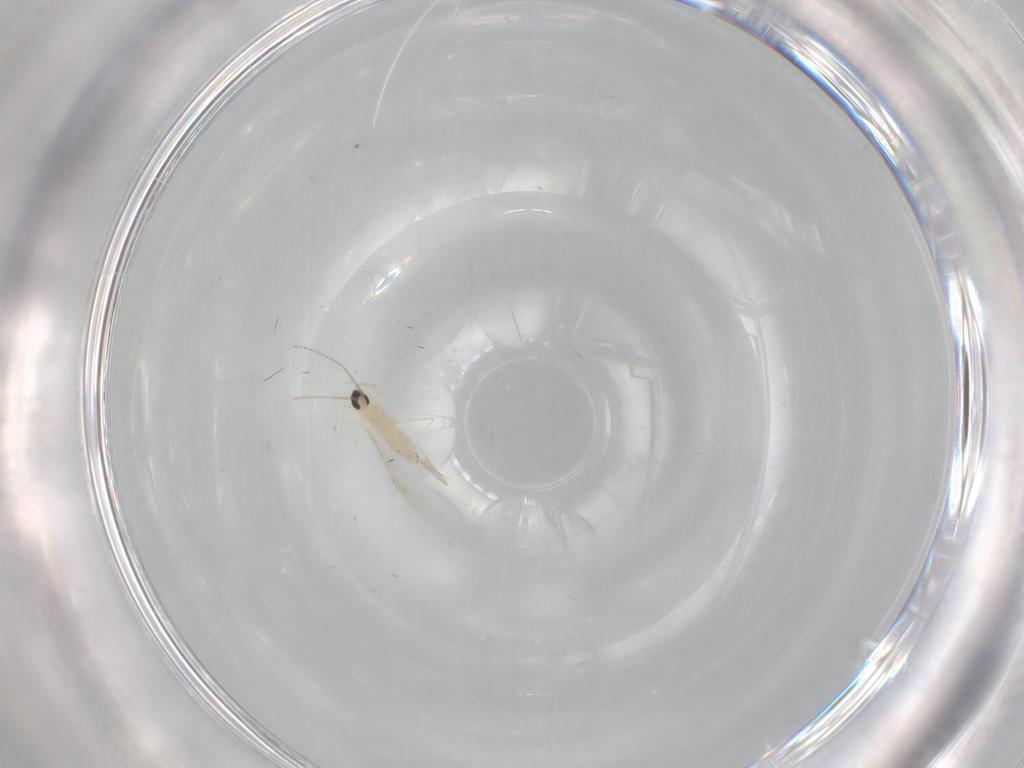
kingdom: Animalia
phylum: Arthropoda
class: Insecta
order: Diptera
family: Cecidomyiidae
